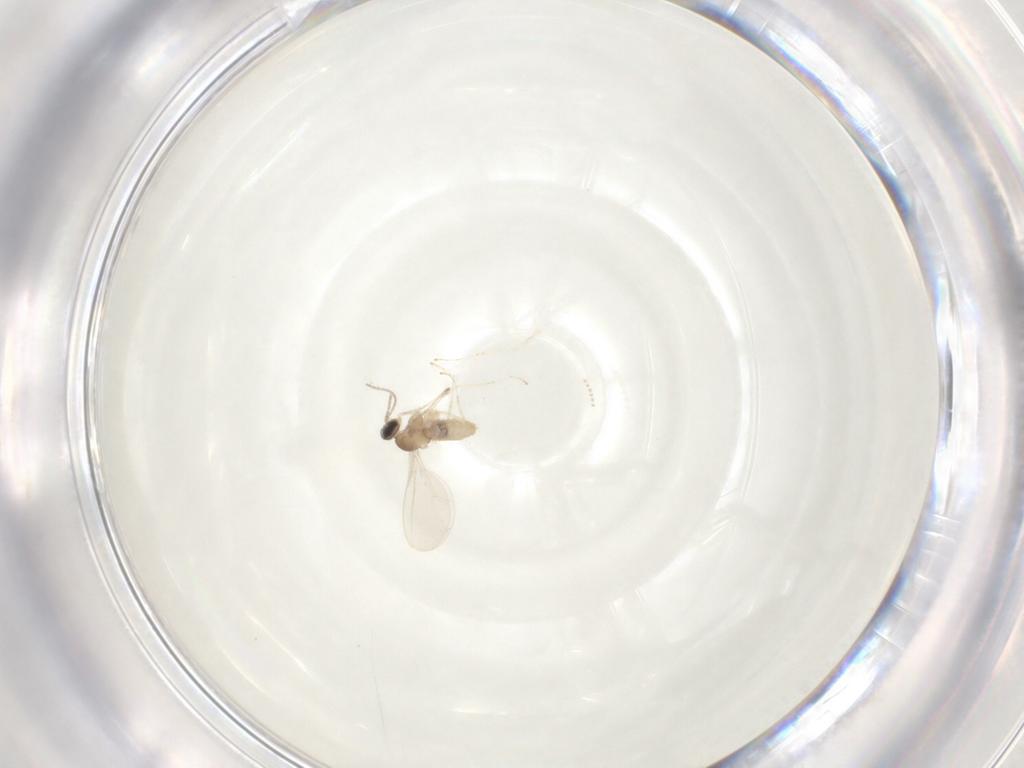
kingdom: Animalia
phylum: Arthropoda
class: Insecta
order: Diptera
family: Cecidomyiidae
